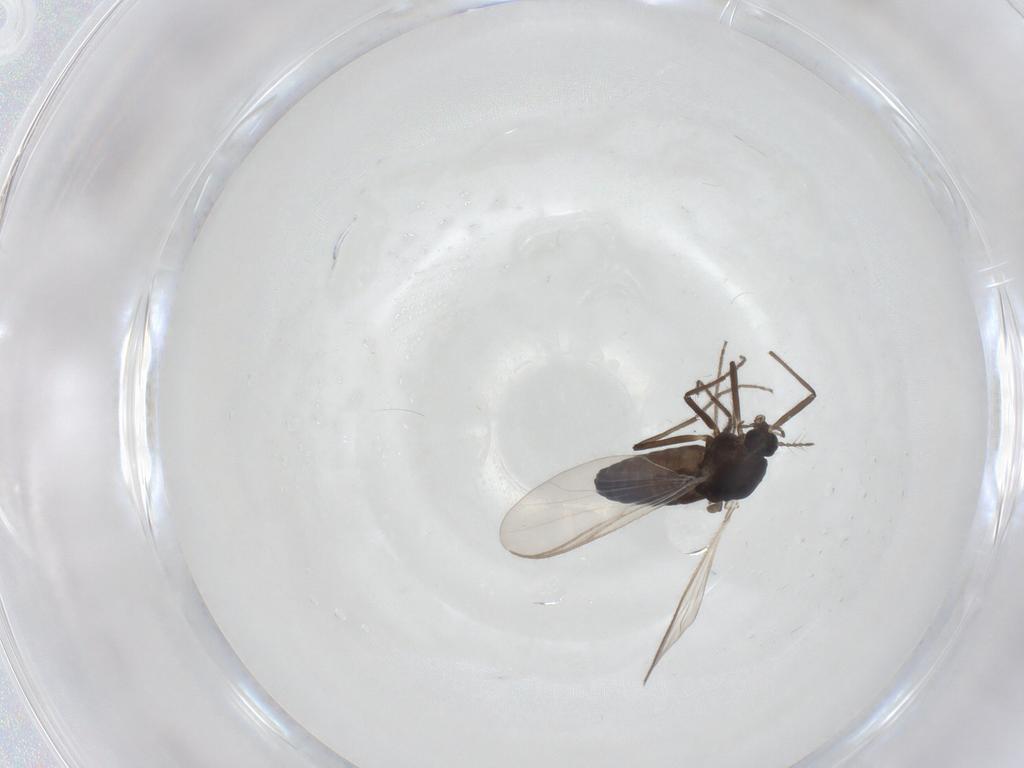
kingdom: Animalia
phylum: Arthropoda
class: Insecta
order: Diptera
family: Chironomidae
